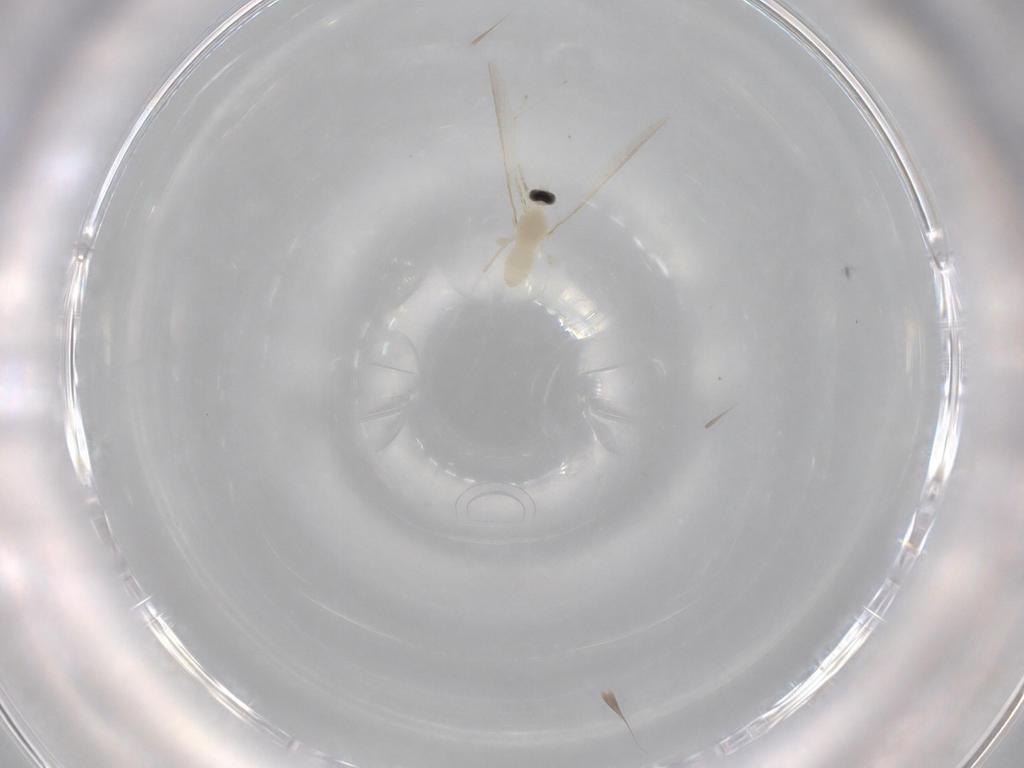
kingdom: Animalia
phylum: Arthropoda
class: Insecta
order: Diptera
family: Cecidomyiidae
